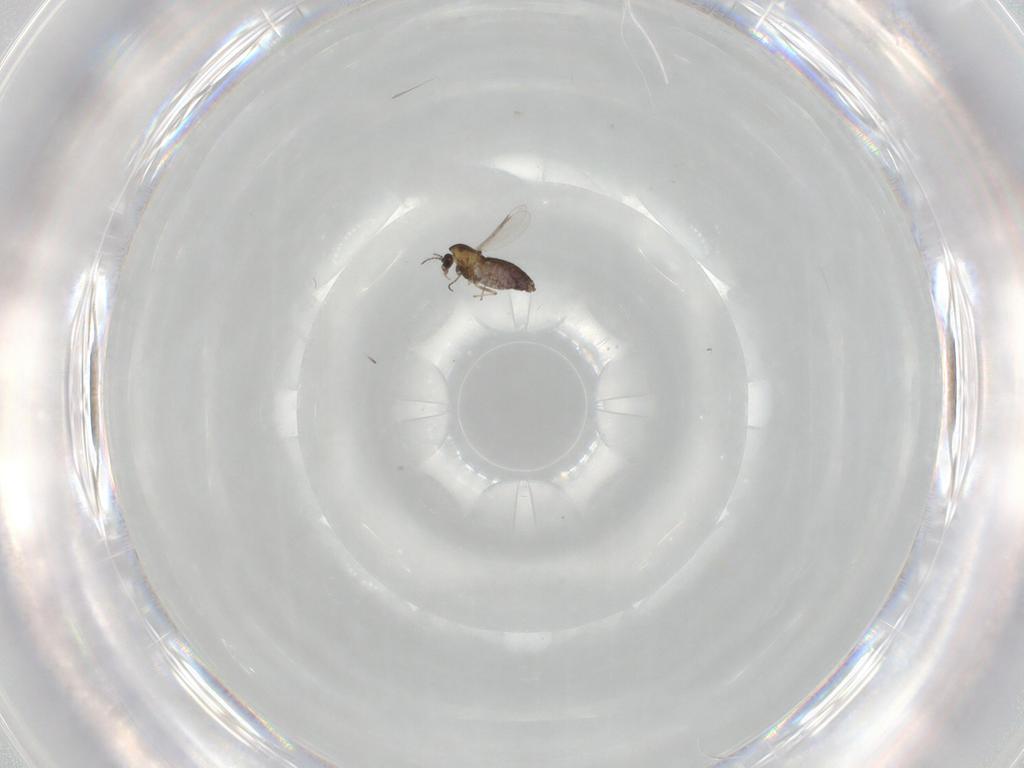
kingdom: Animalia
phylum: Arthropoda
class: Insecta
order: Diptera
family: Chironomidae
